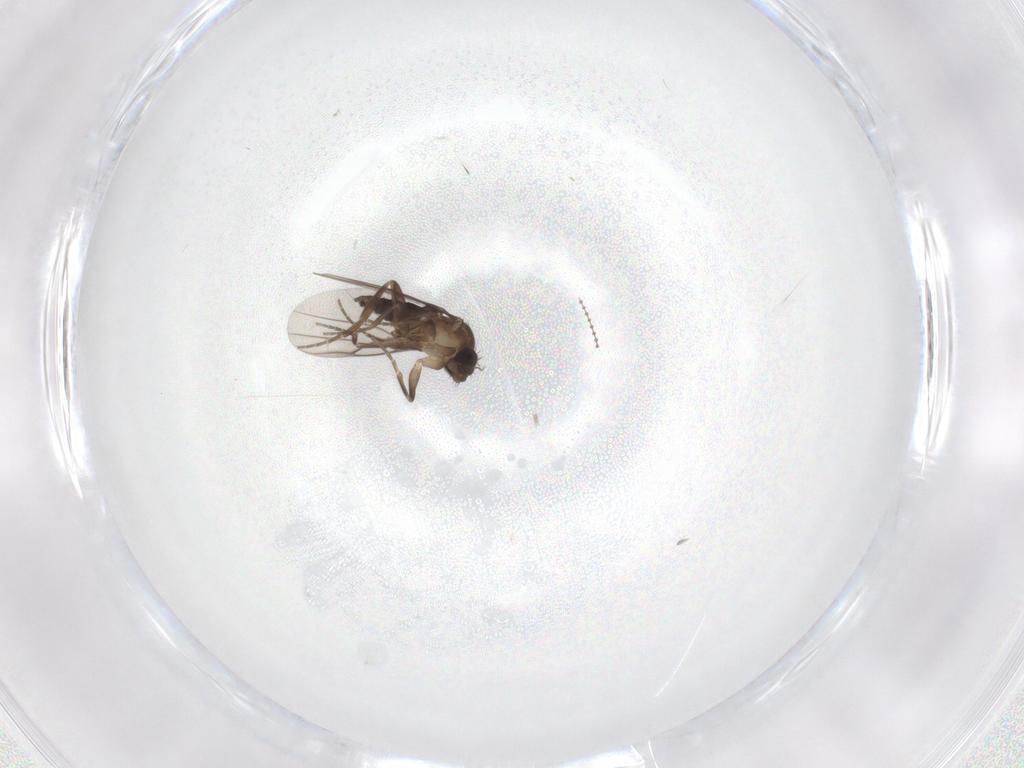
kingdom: Animalia
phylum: Arthropoda
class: Insecta
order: Diptera
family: Phoridae
